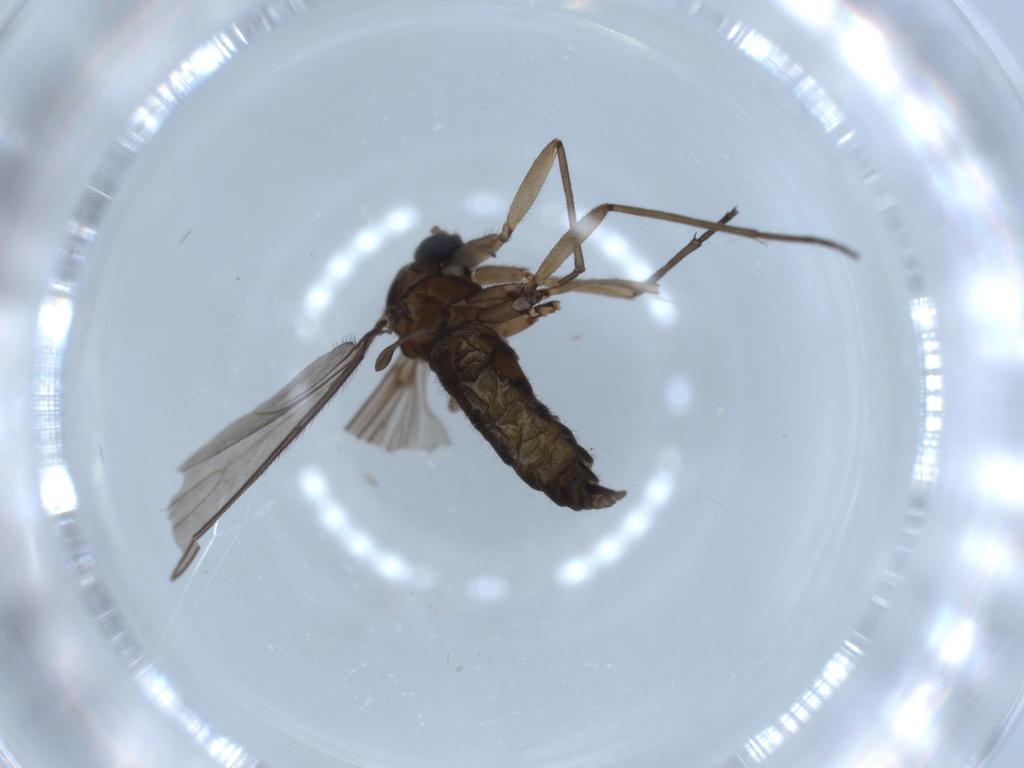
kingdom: Animalia
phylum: Arthropoda
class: Insecta
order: Diptera
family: Sciaridae
